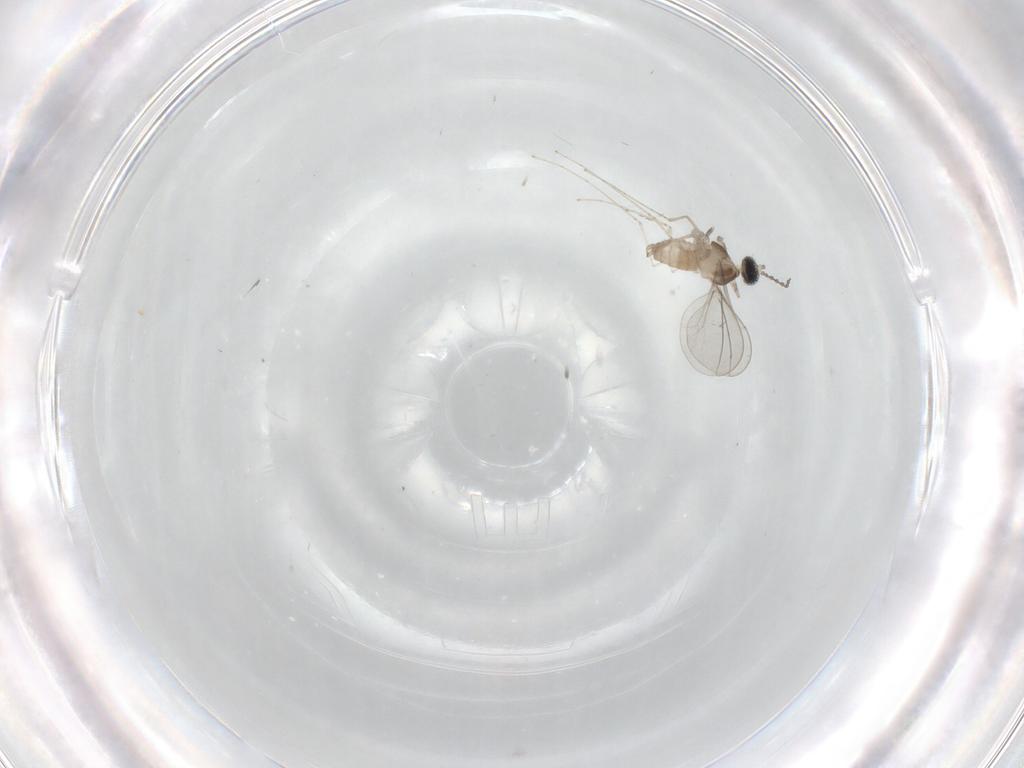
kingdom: Animalia
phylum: Arthropoda
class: Insecta
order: Diptera
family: Cecidomyiidae
